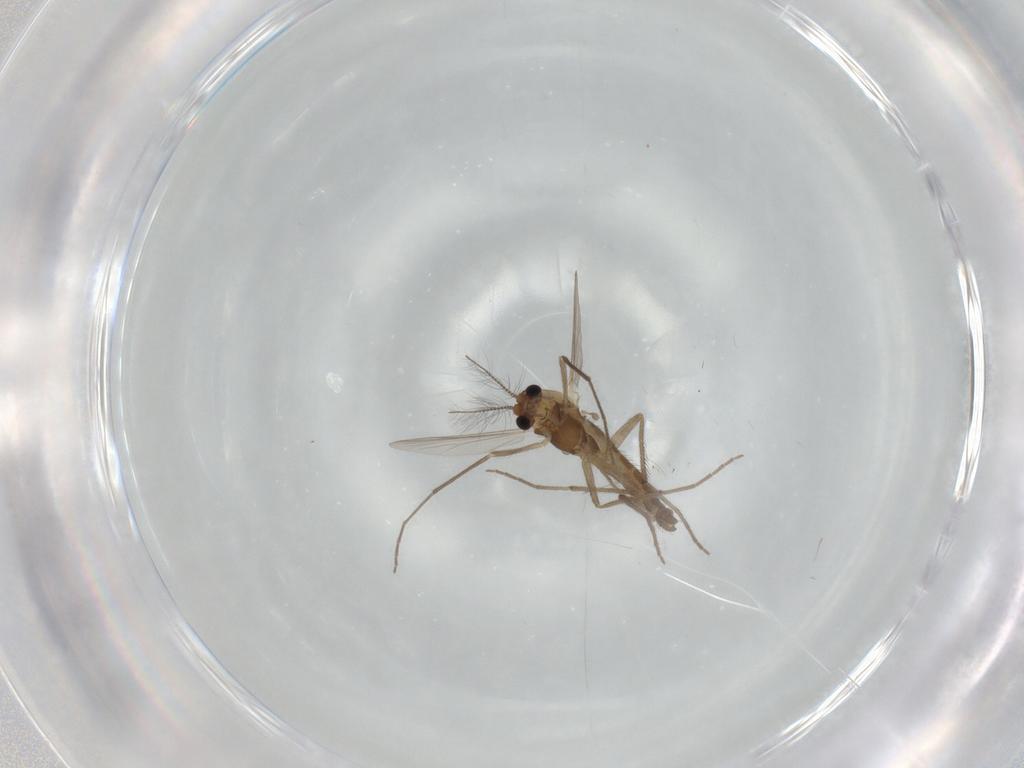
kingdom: Animalia
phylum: Arthropoda
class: Insecta
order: Diptera
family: Chironomidae
